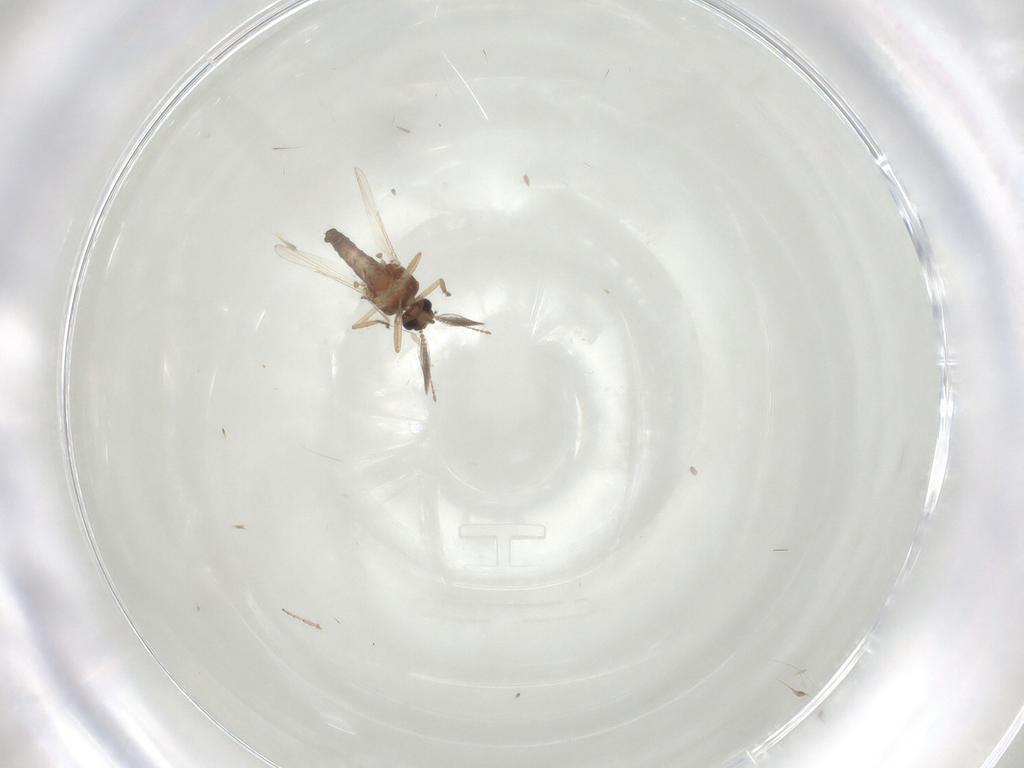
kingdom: Animalia
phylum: Arthropoda
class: Insecta
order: Diptera
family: Ceratopogonidae
